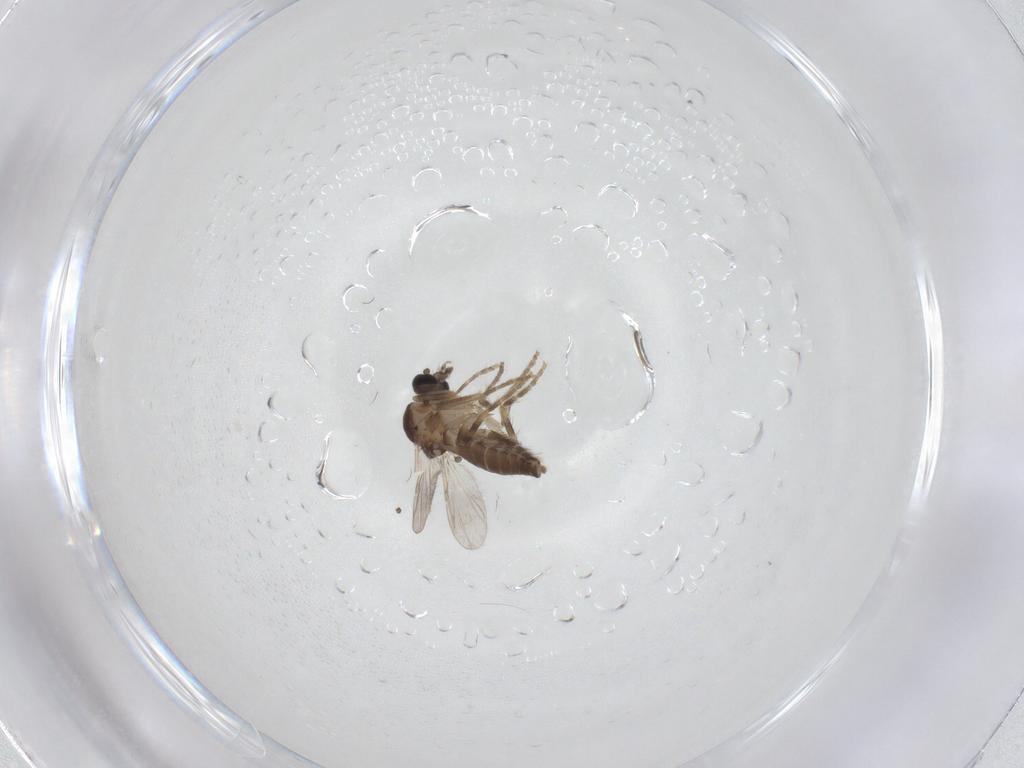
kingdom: Animalia
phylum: Arthropoda
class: Insecta
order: Diptera
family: Ceratopogonidae
